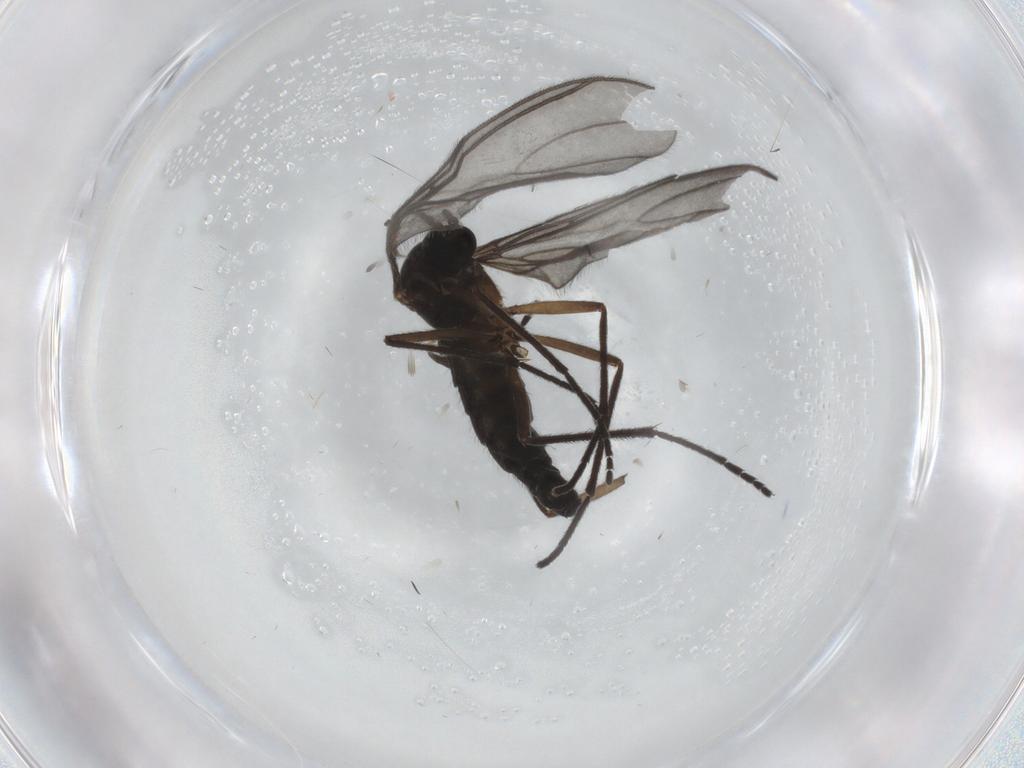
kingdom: Animalia
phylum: Arthropoda
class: Insecta
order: Diptera
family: Sciaridae
